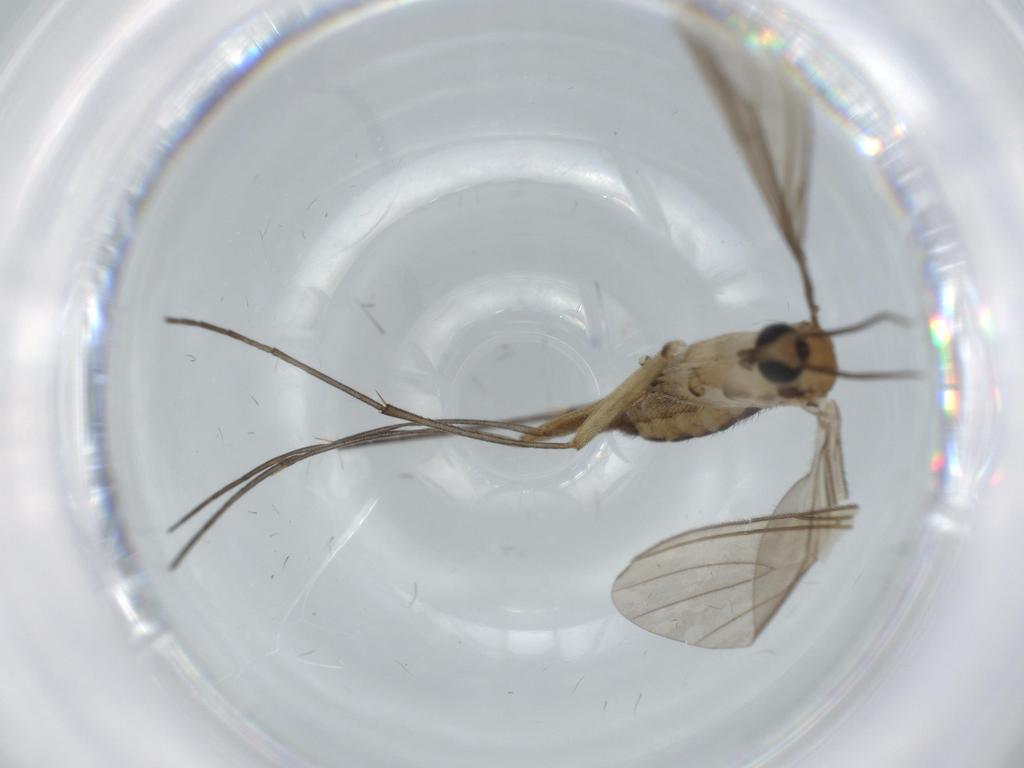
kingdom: Animalia
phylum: Arthropoda
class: Insecta
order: Diptera
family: Sciaridae
